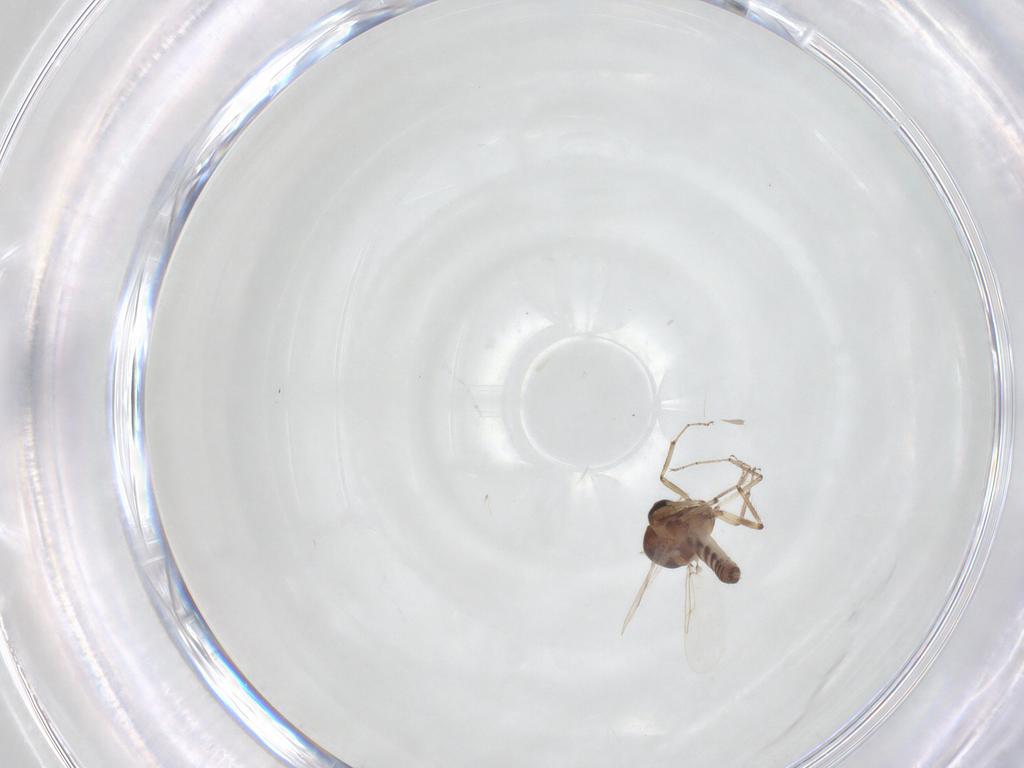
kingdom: Animalia
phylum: Arthropoda
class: Insecta
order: Diptera
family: Ceratopogonidae
